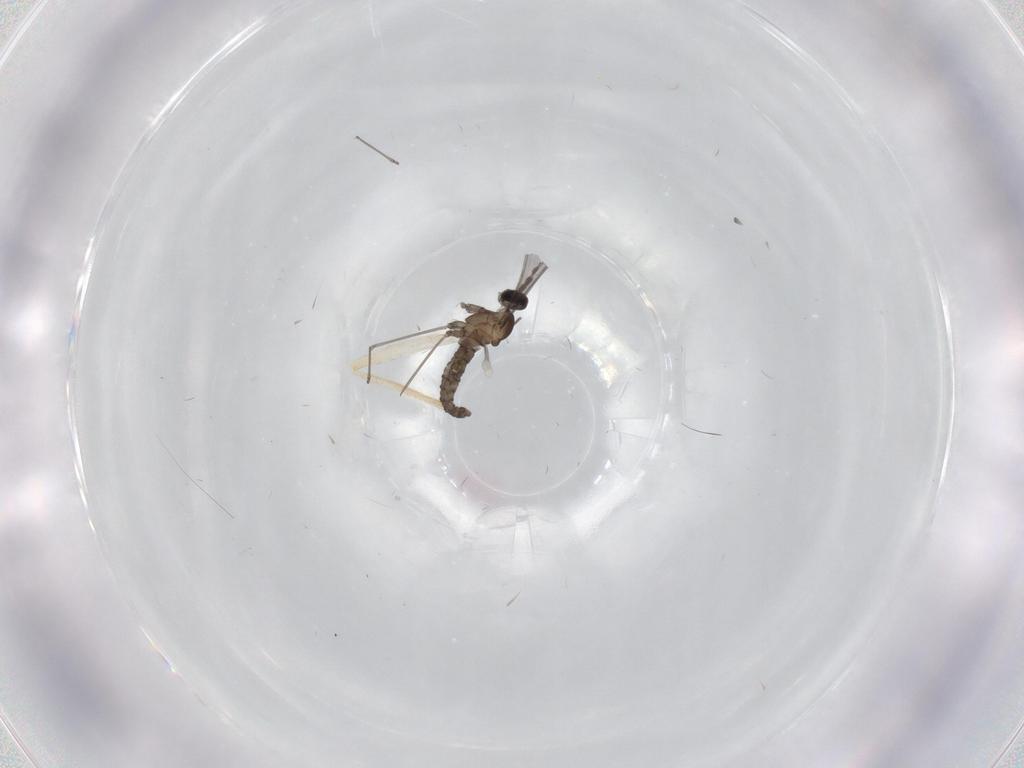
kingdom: Animalia
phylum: Arthropoda
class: Insecta
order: Diptera
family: Cecidomyiidae
